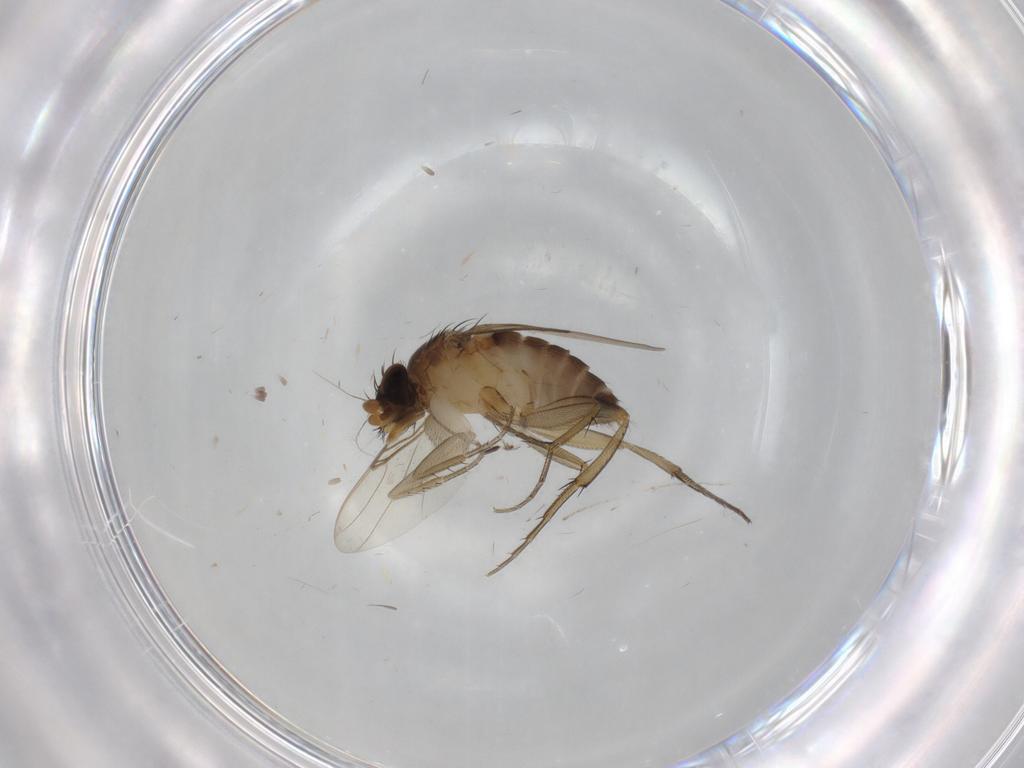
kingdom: Animalia
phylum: Arthropoda
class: Insecta
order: Diptera
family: Phoridae
